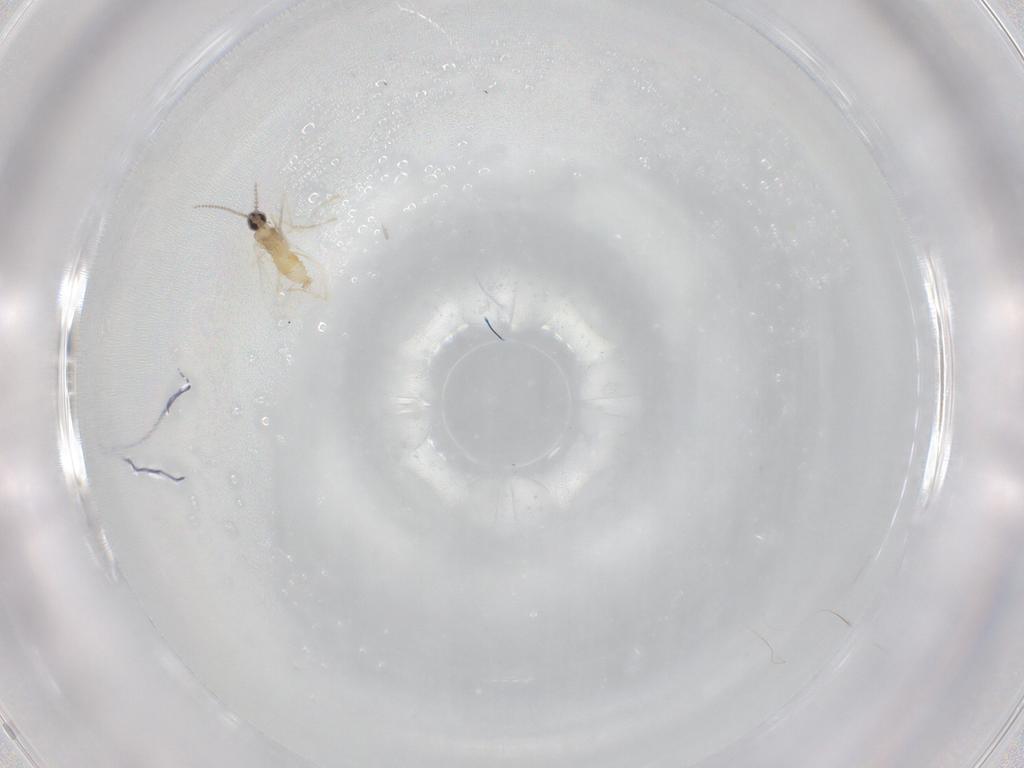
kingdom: Animalia
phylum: Arthropoda
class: Insecta
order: Diptera
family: Cecidomyiidae
